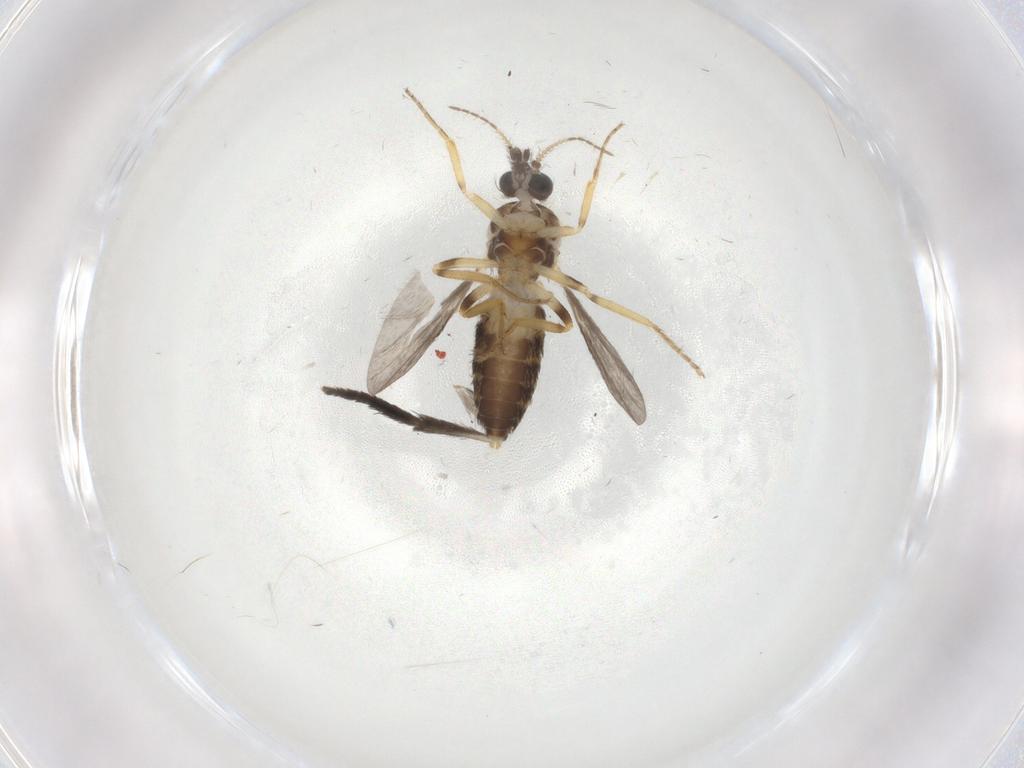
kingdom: Animalia
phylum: Arthropoda
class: Insecta
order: Diptera
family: Ceratopogonidae
